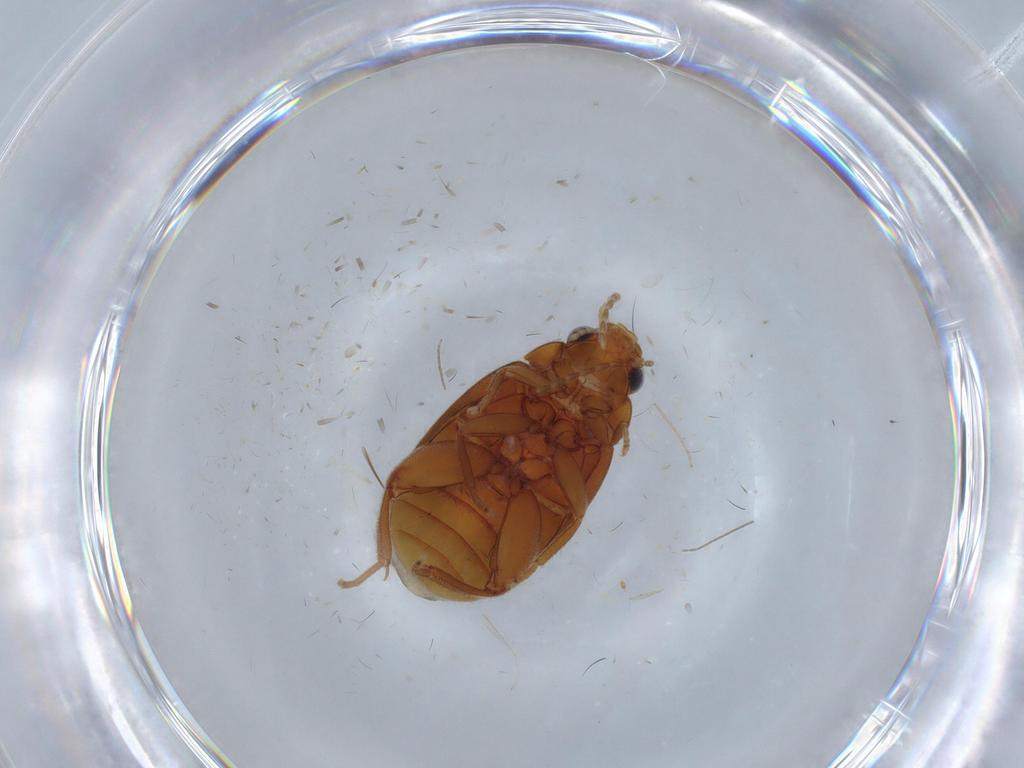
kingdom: Animalia
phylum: Arthropoda
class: Insecta
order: Coleoptera
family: Scirtidae
